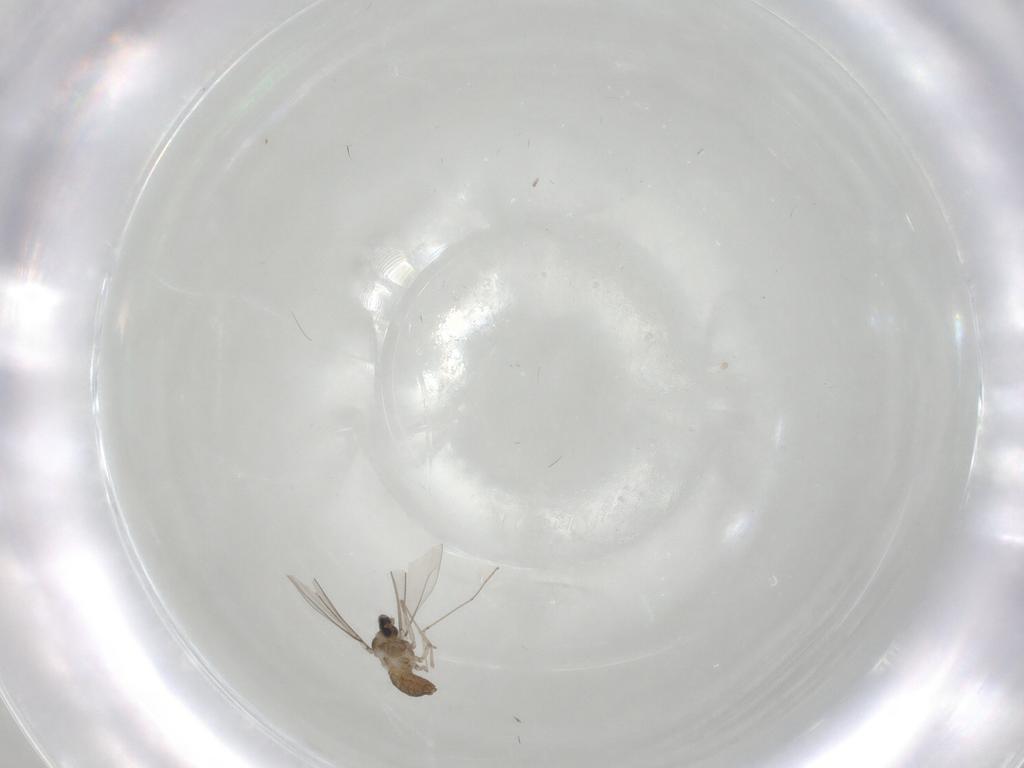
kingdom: Animalia
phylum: Arthropoda
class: Insecta
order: Diptera
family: Cecidomyiidae
